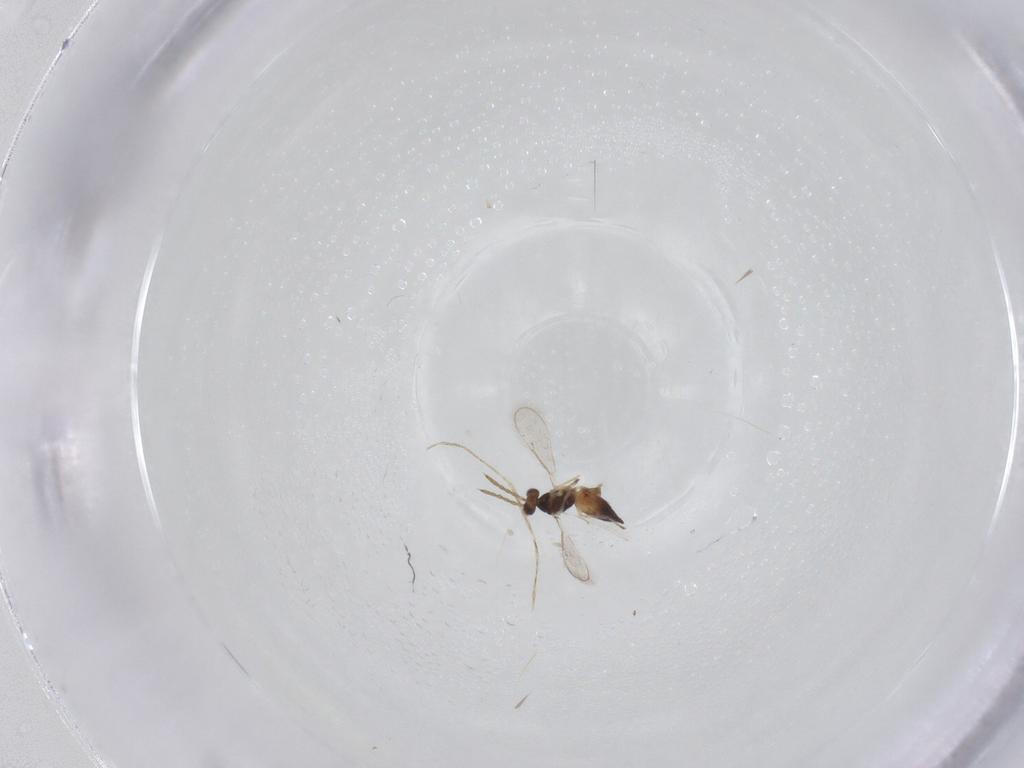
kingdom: Animalia
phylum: Arthropoda
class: Insecta
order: Hymenoptera
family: Eulophidae
